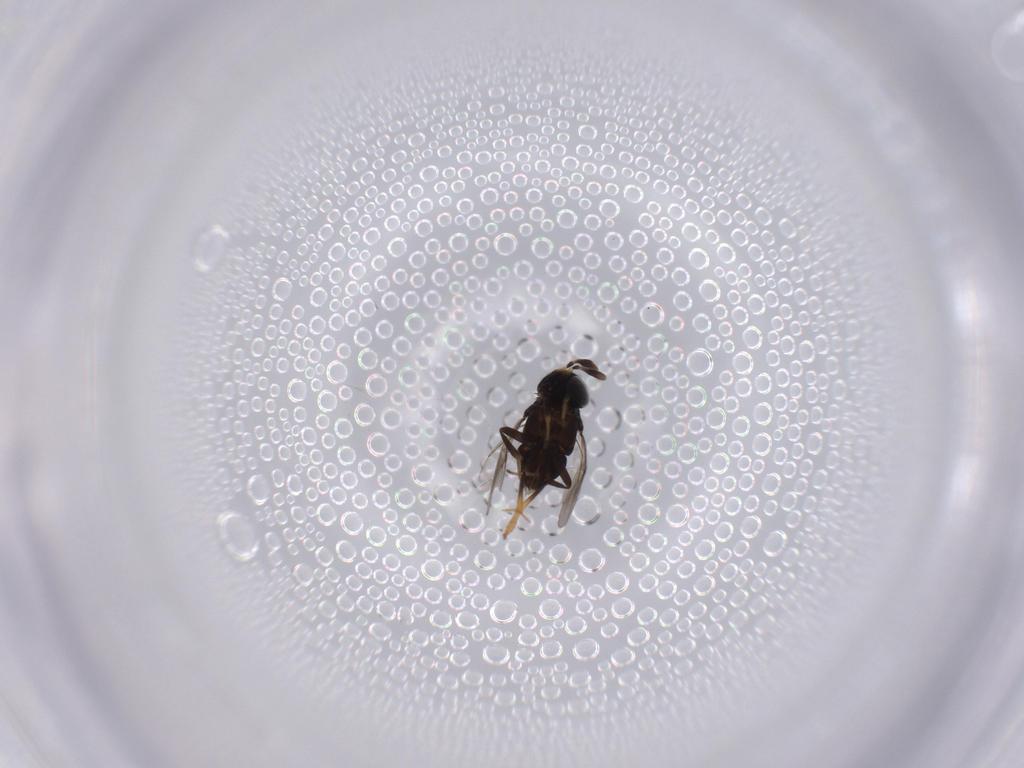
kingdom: Animalia
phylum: Arthropoda
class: Insecta
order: Hymenoptera
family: Encyrtidae
